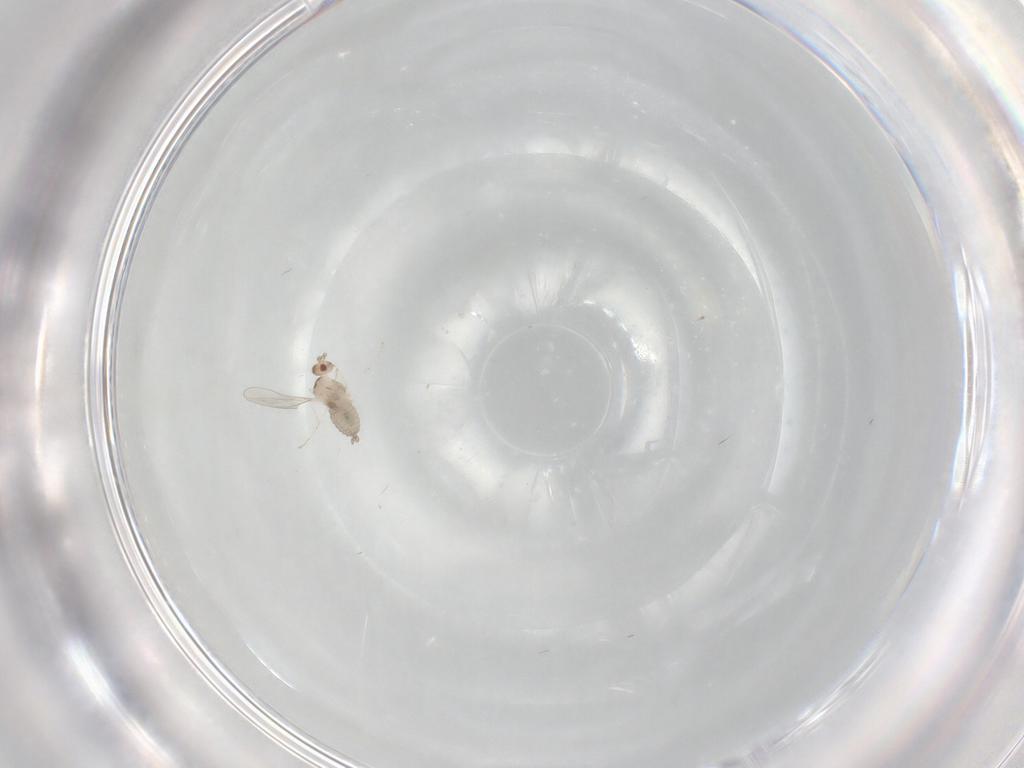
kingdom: Animalia
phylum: Arthropoda
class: Insecta
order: Diptera
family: Cecidomyiidae
